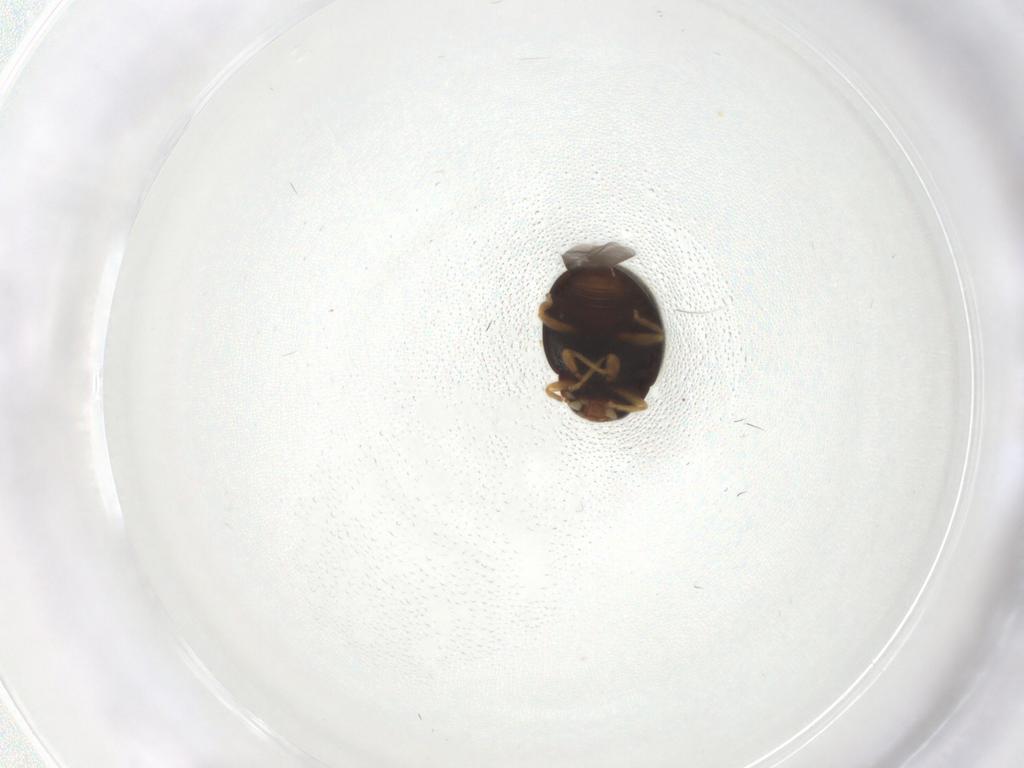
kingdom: Animalia
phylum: Arthropoda
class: Insecta
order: Coleoptera
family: Coccinellidae
